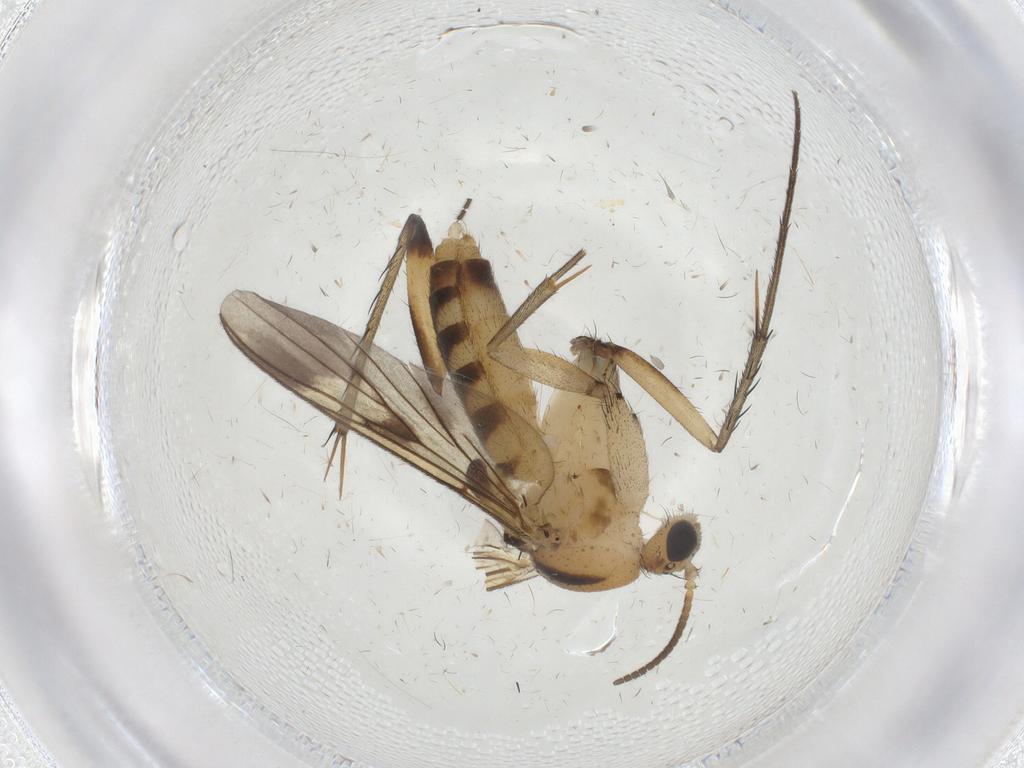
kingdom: Animalia
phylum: Arthropoda
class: Insecta
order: Diptera
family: Mycetophilidae
